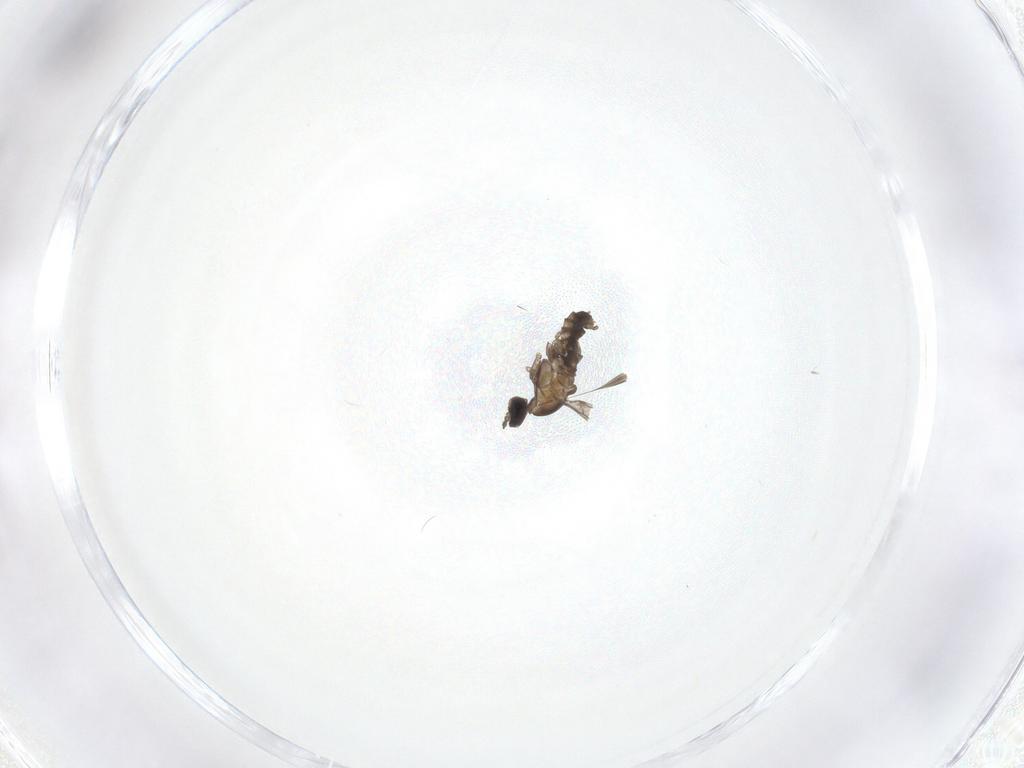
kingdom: Animalia
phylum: Arthropoda
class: Insecta
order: Diptera
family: Cecidomyiidae
